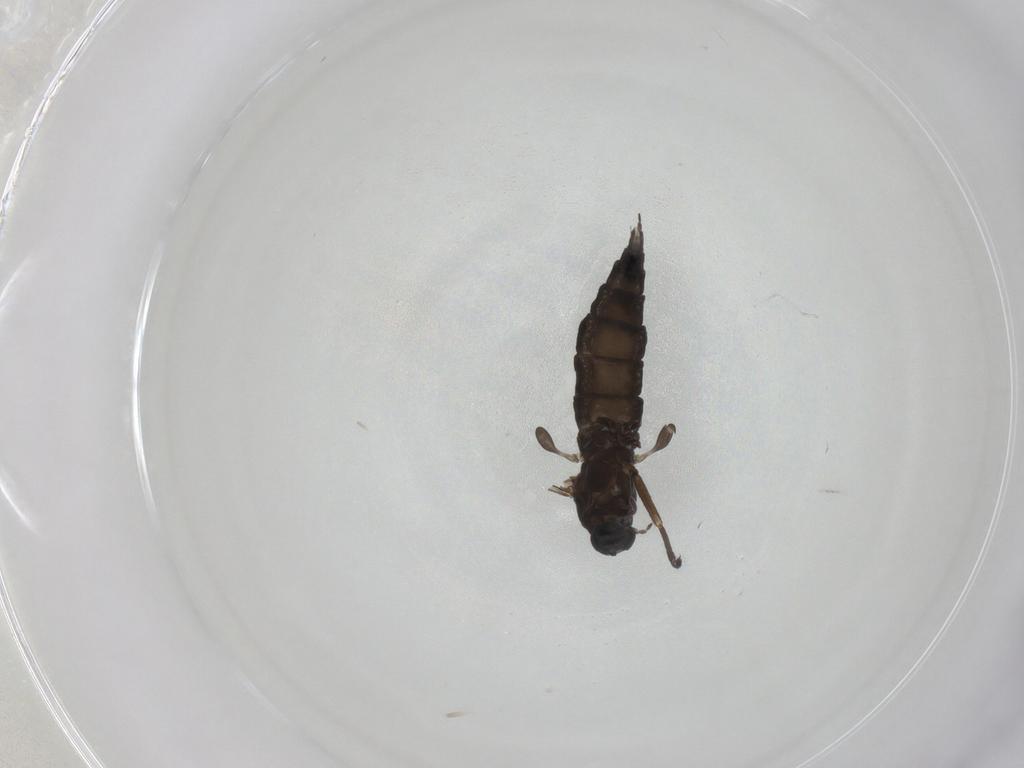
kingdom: Animalia
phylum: Arthropoda
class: Insecta
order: Diptera
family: Sciaridae
